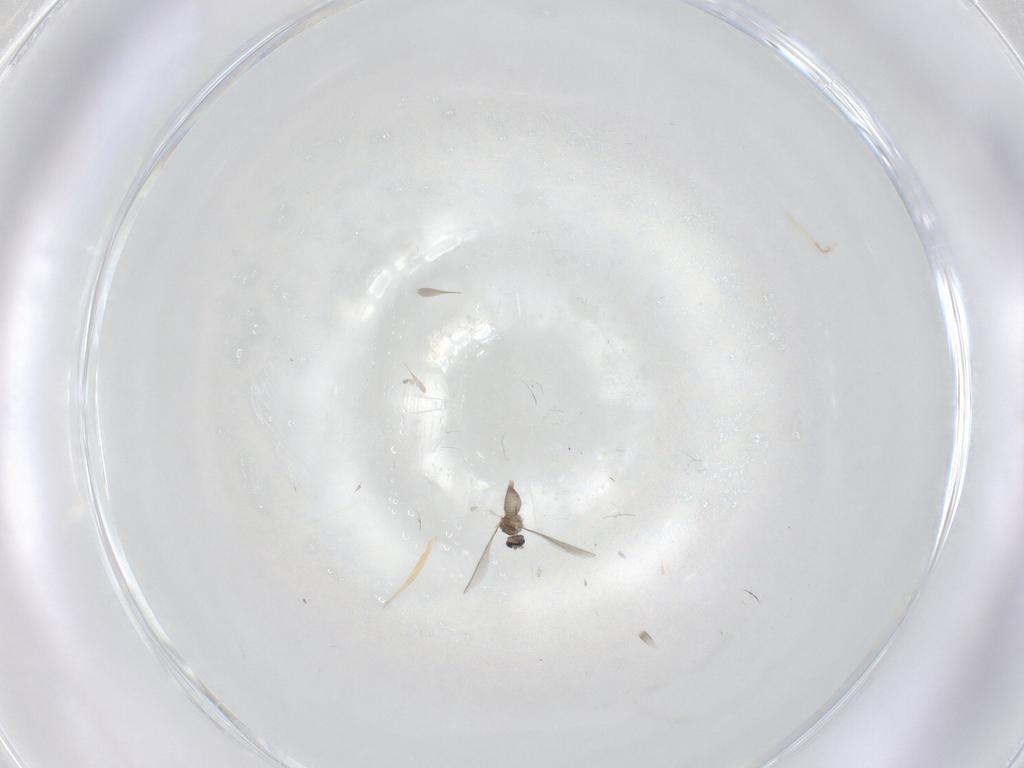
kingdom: Animalia
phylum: Arthropoda
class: Insecta
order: Diptera
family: Cecidomyiidae
